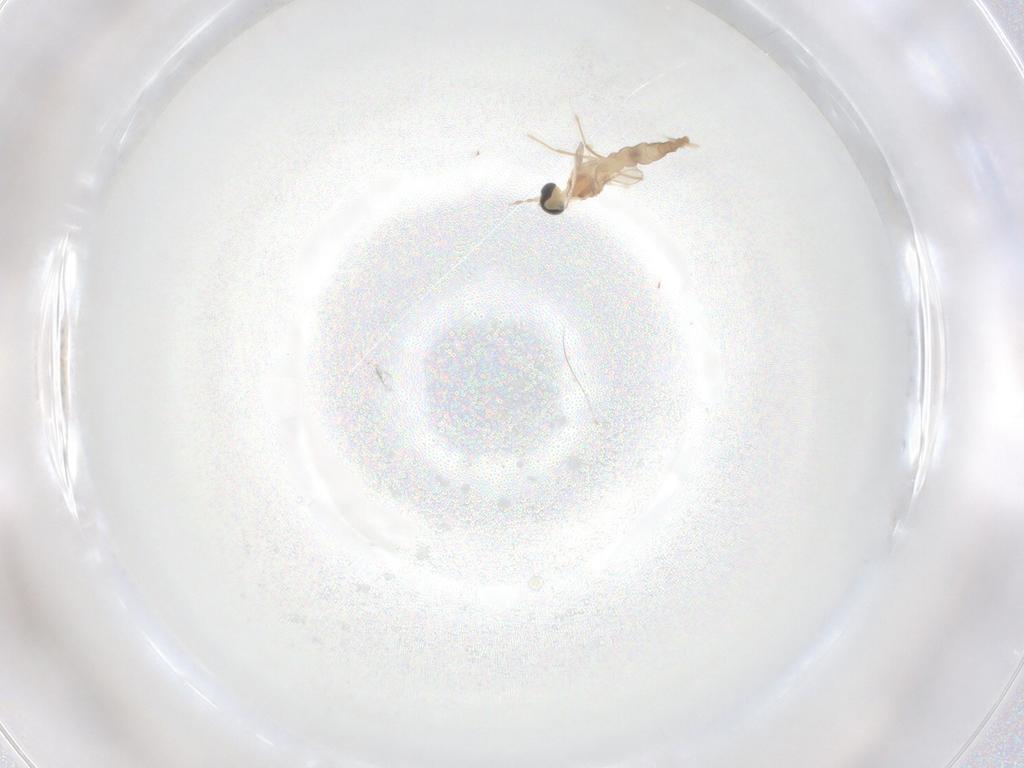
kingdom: Animalia
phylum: Arthropoda
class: Insecta
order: Diptera
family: Cecidomyiidae
